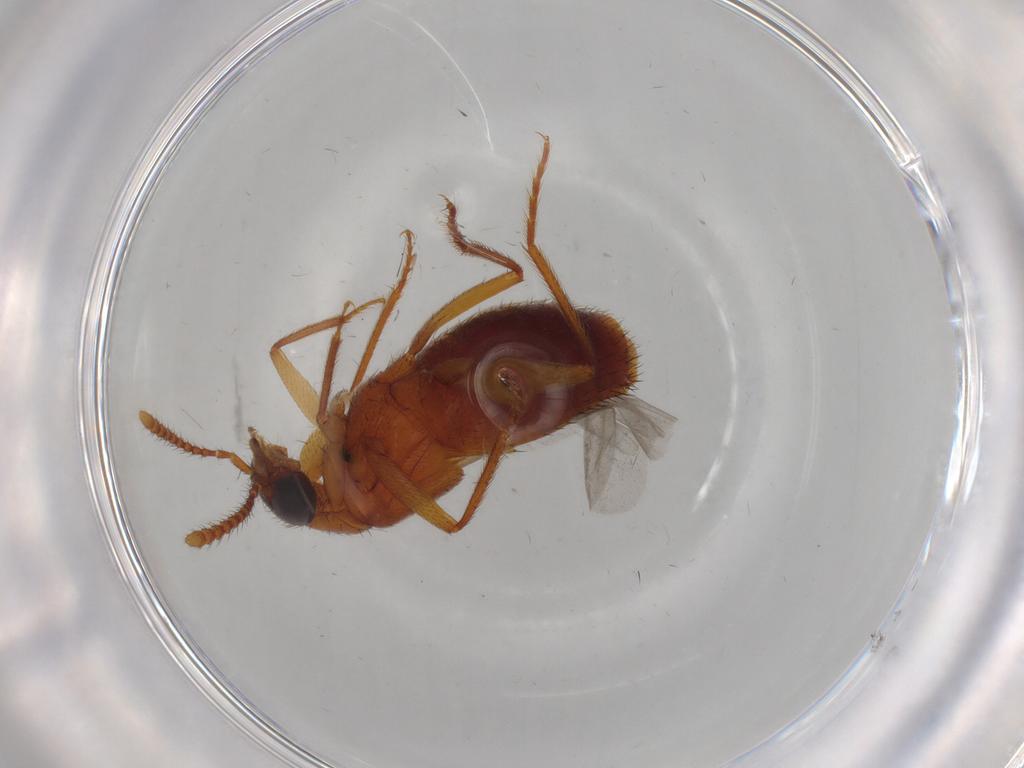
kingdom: Animalia
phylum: Arthropoda
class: Insecta
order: Coleoptera
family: Staphylinidae
